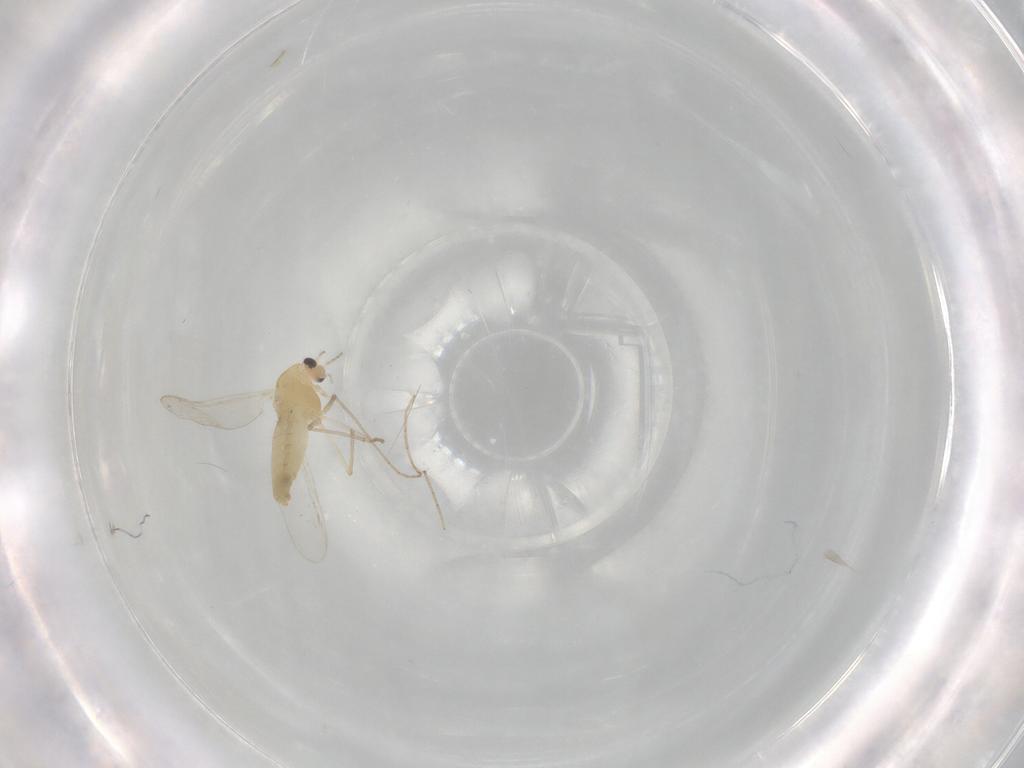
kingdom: Animalia
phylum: Arthropoda
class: Insecta
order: Diptera
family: Chironomidae
